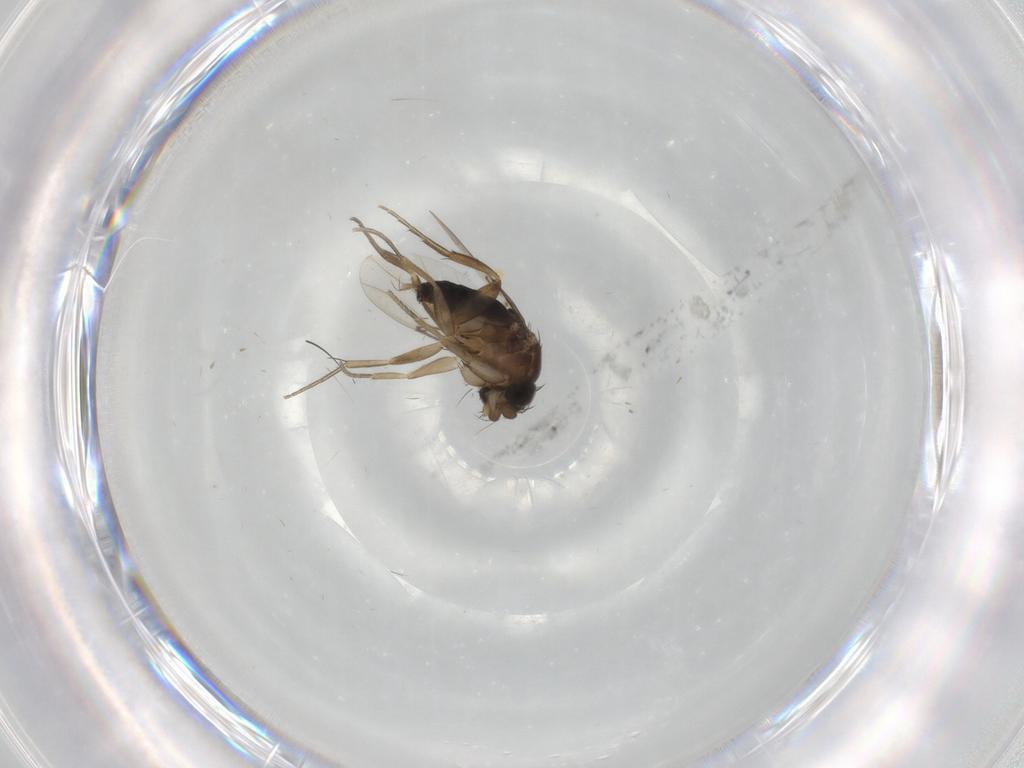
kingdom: Animalia
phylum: Arthropoda
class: Insecta
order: Diptera
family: Phoridae
